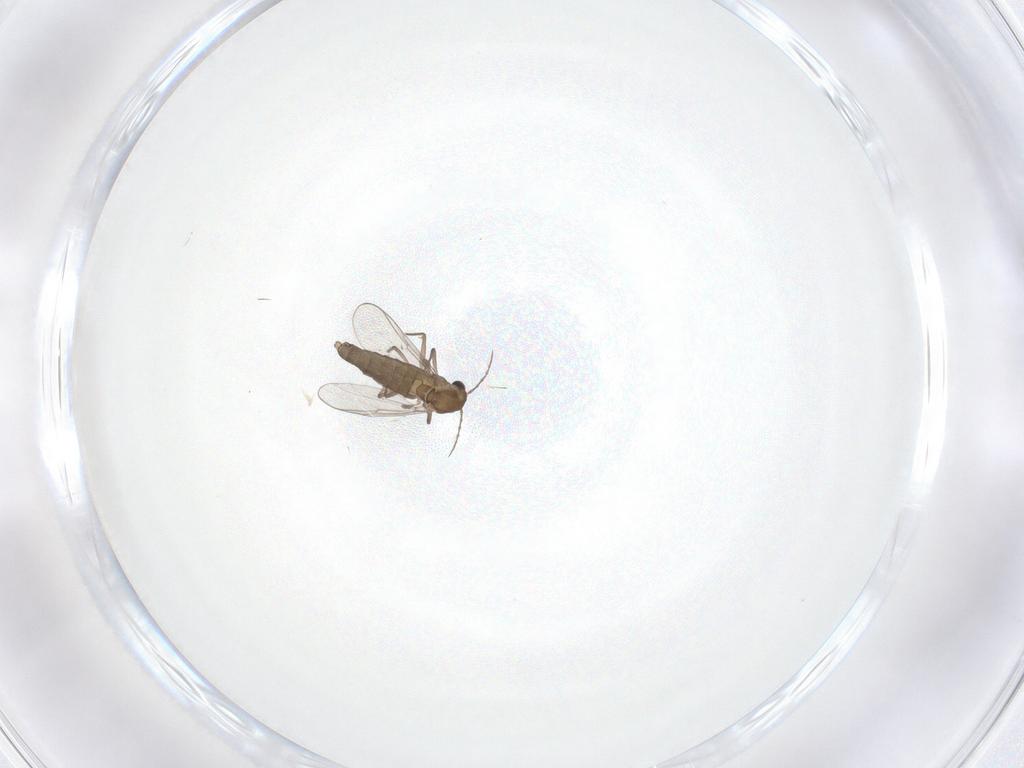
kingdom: Animalia
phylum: Arthropoda
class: Insecta
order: Diptera
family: Chironomidae
